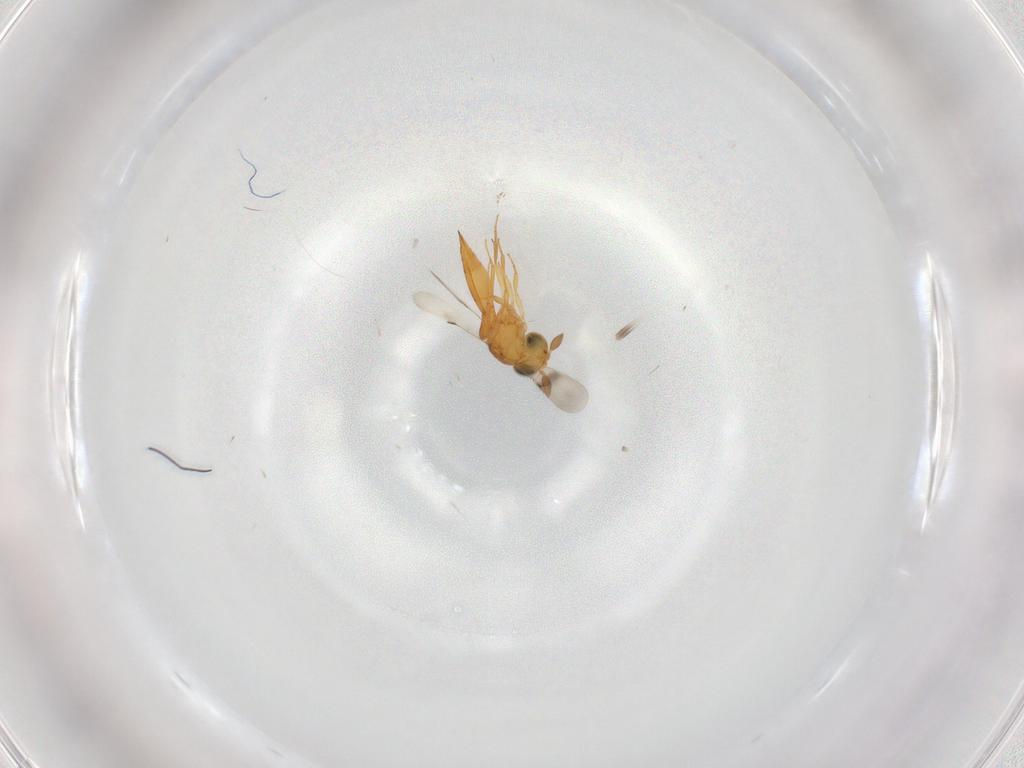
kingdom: Animalia
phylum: Arthropoda
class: Insecta
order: Hymenoptera
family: Scelionidae
